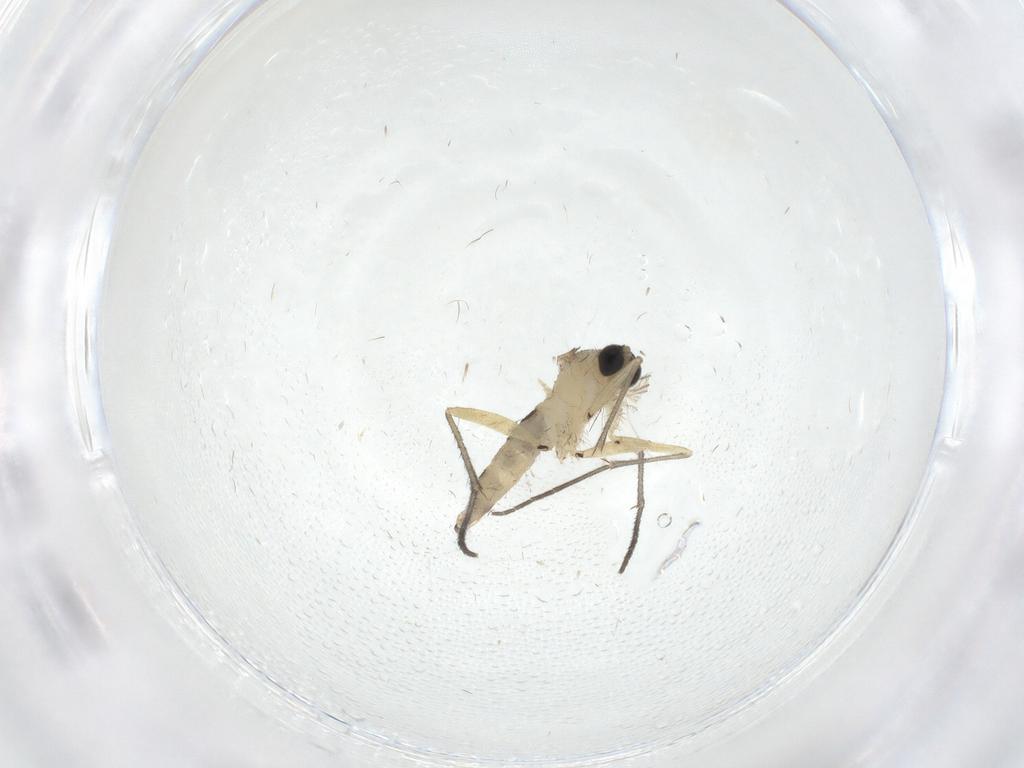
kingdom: Animalia
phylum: Arthropoda
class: Insecta
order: Diptera
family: Sciaridae
